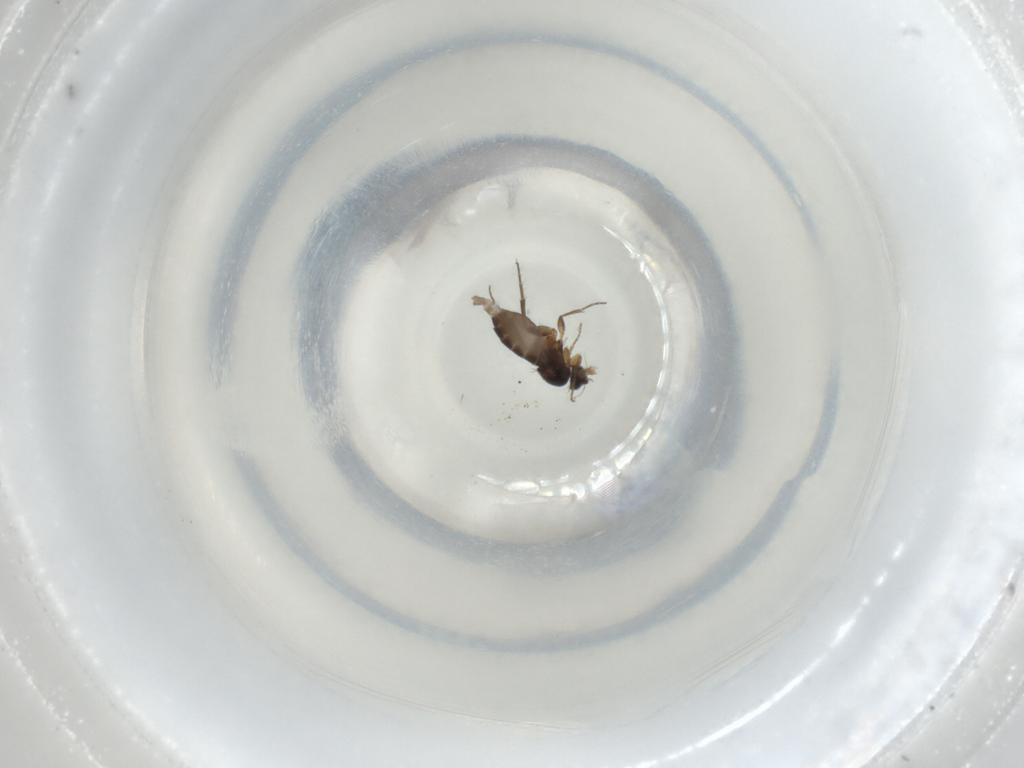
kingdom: Animalia
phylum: Arthropoda
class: Insecta
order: Diptera
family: Phoridae
